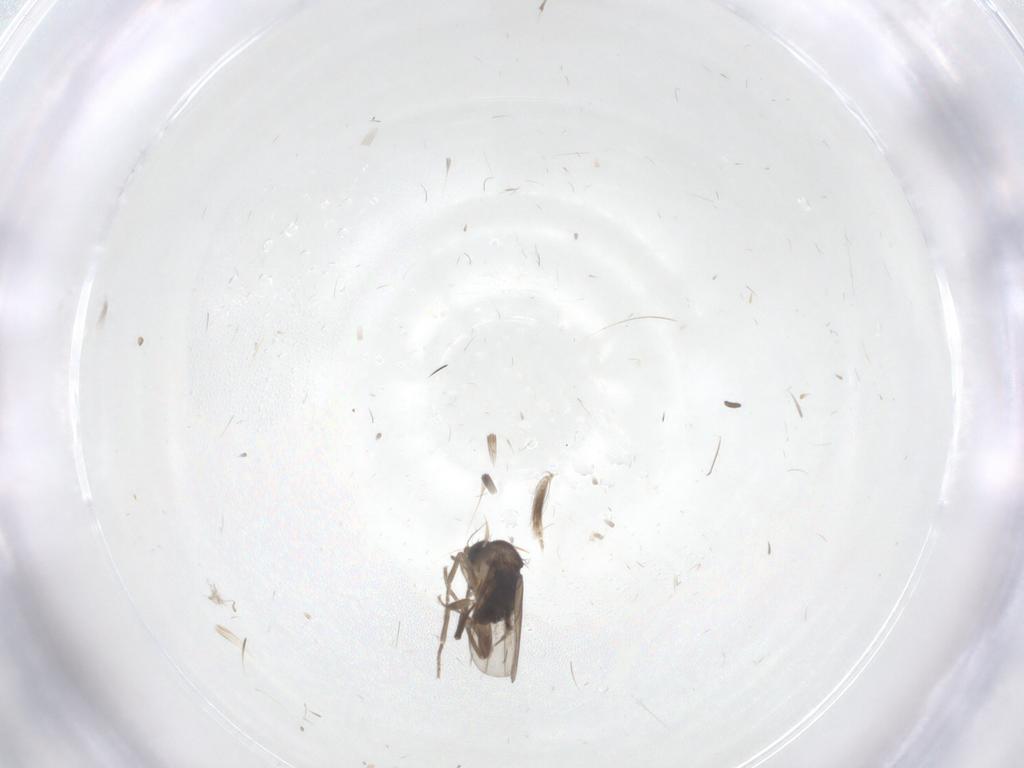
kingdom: Animalia
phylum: Arthropoda
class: Insecta
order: Diptera
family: Phoridae
